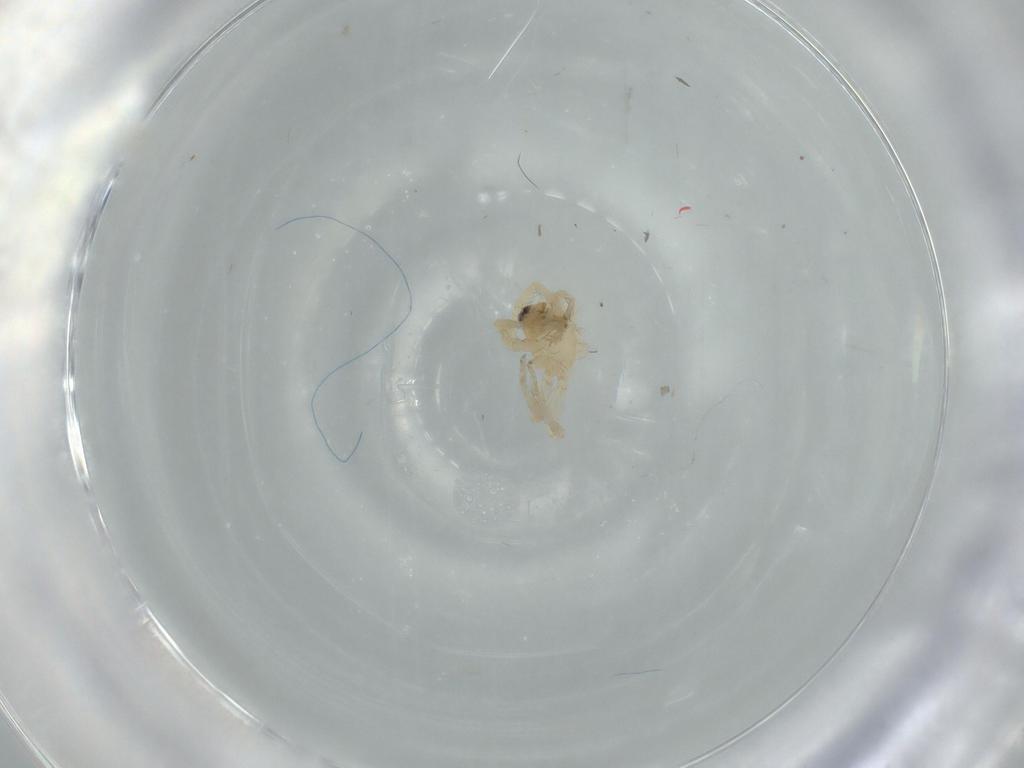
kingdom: Animalia
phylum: Arthropoda
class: Arachnida
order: Araneae
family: Oonopidae
